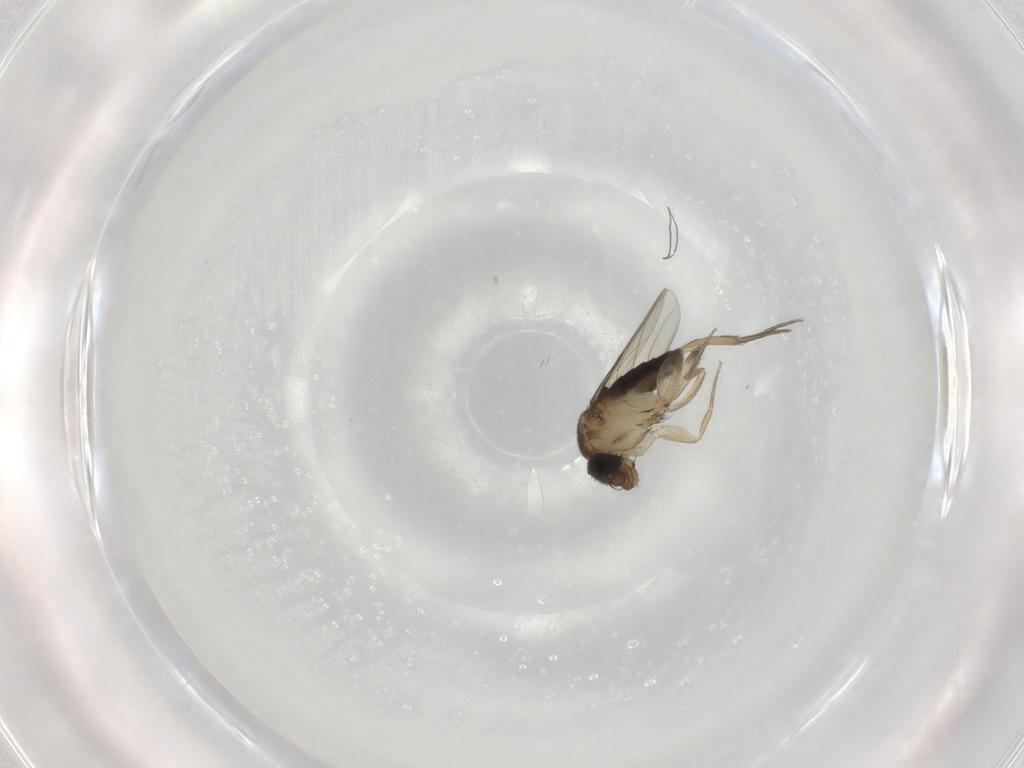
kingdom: Animalia
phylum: Arthropoda
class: Insecta
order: Diptera
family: Phoridae
